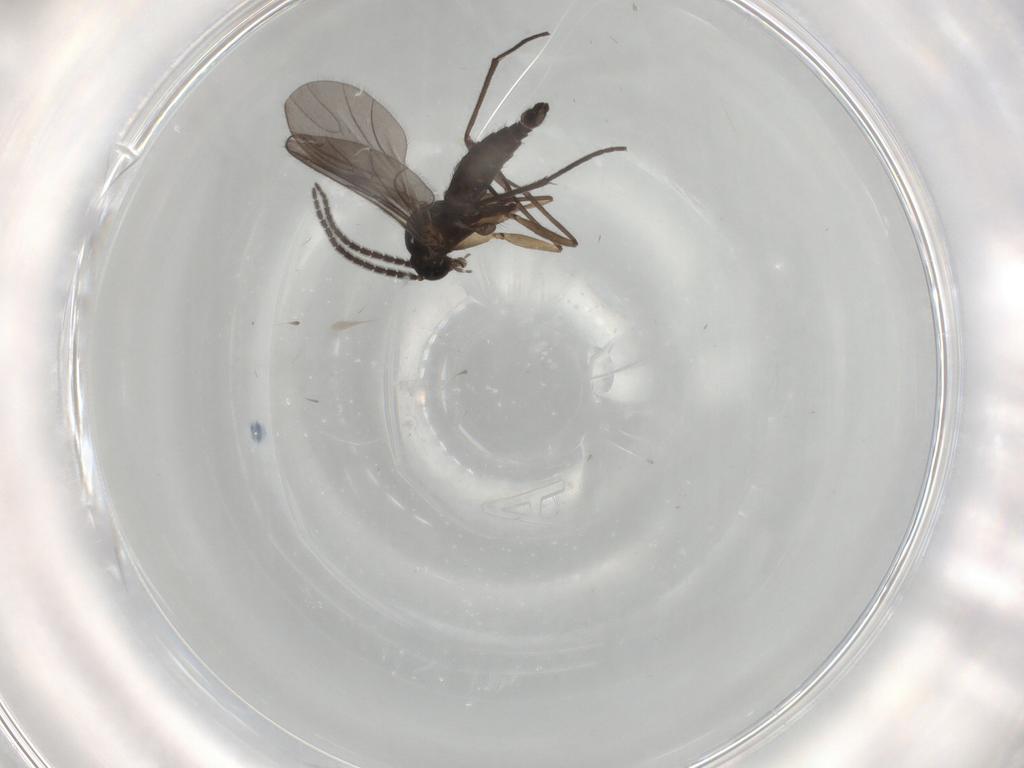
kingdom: Animalia
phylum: Arthropoda
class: Insecta
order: Diptera
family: Sciaridae
